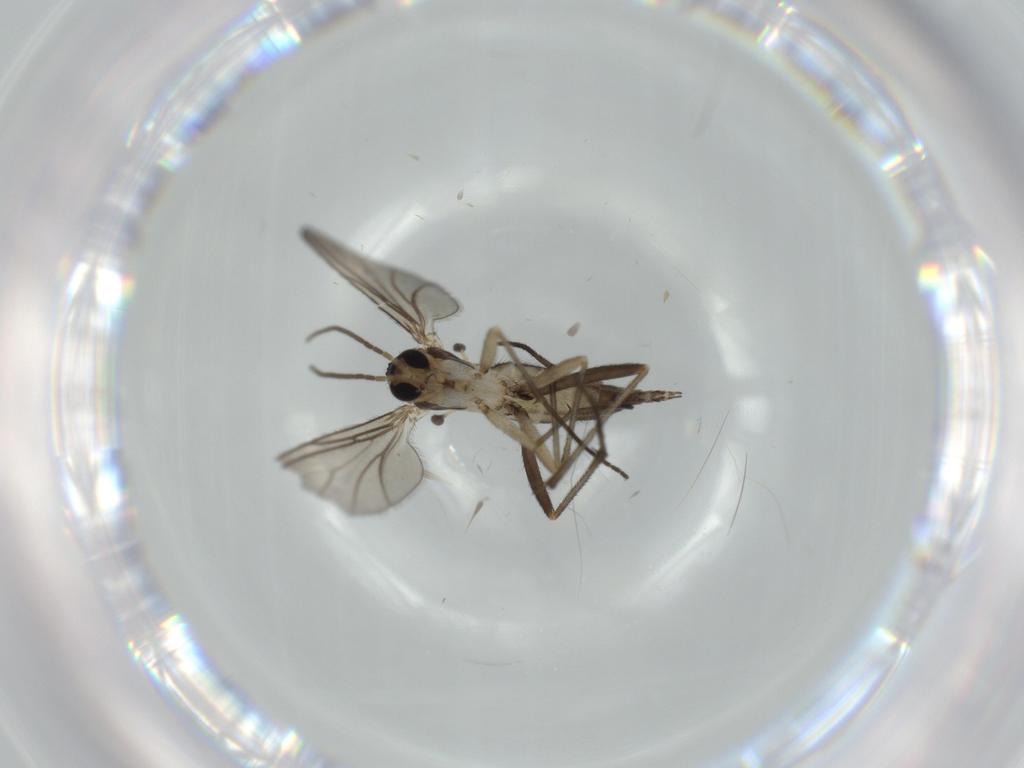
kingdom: Animalia
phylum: Arthropoda
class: Insecta
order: Diptera
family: Sciaridae
